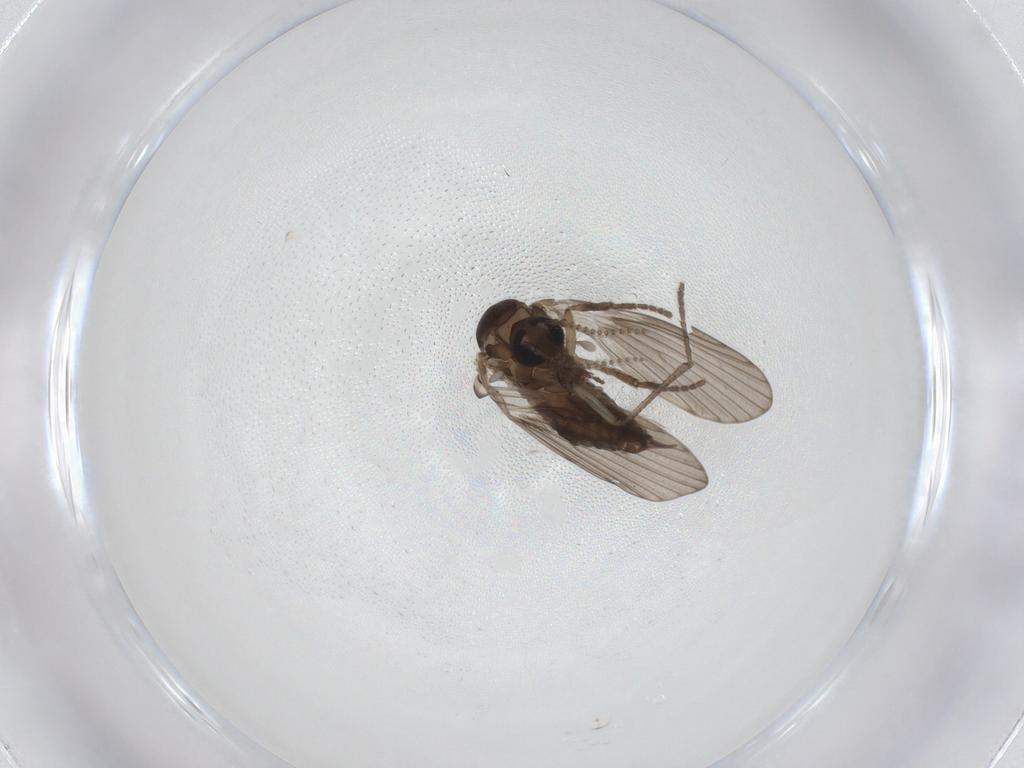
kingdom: Animalia
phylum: Arthropoda
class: Insecta
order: Diptera
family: Psychodidae
